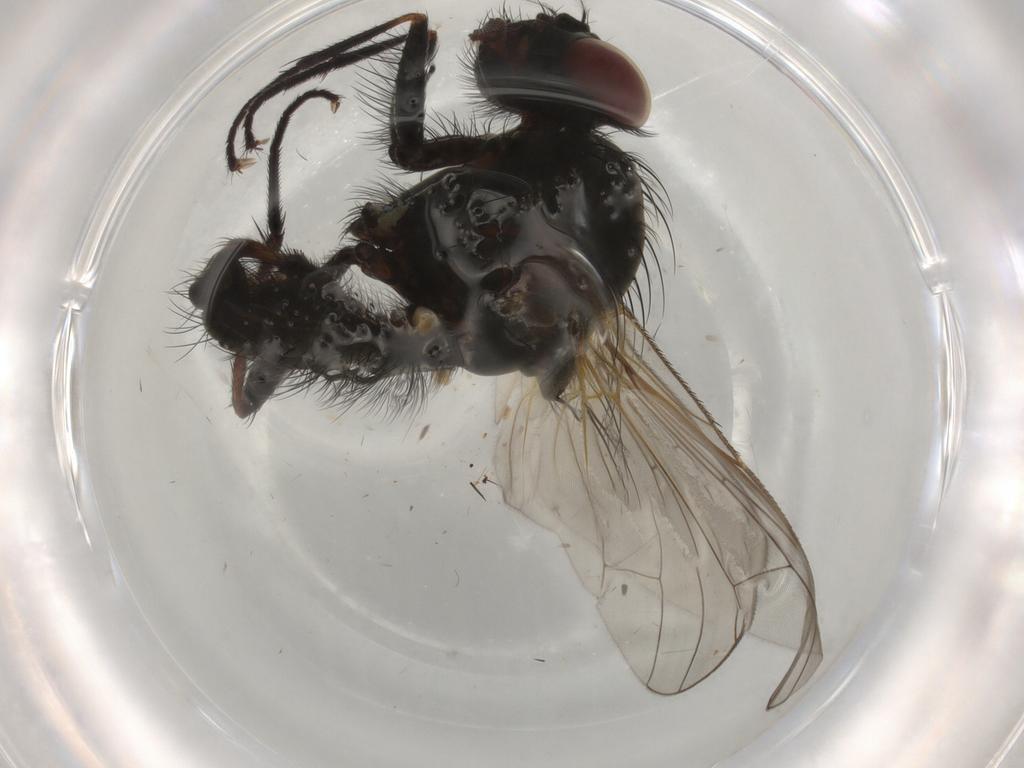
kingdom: Animalia
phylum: Arthropoda
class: Insecta
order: Diptera
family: Anthomyiidae
